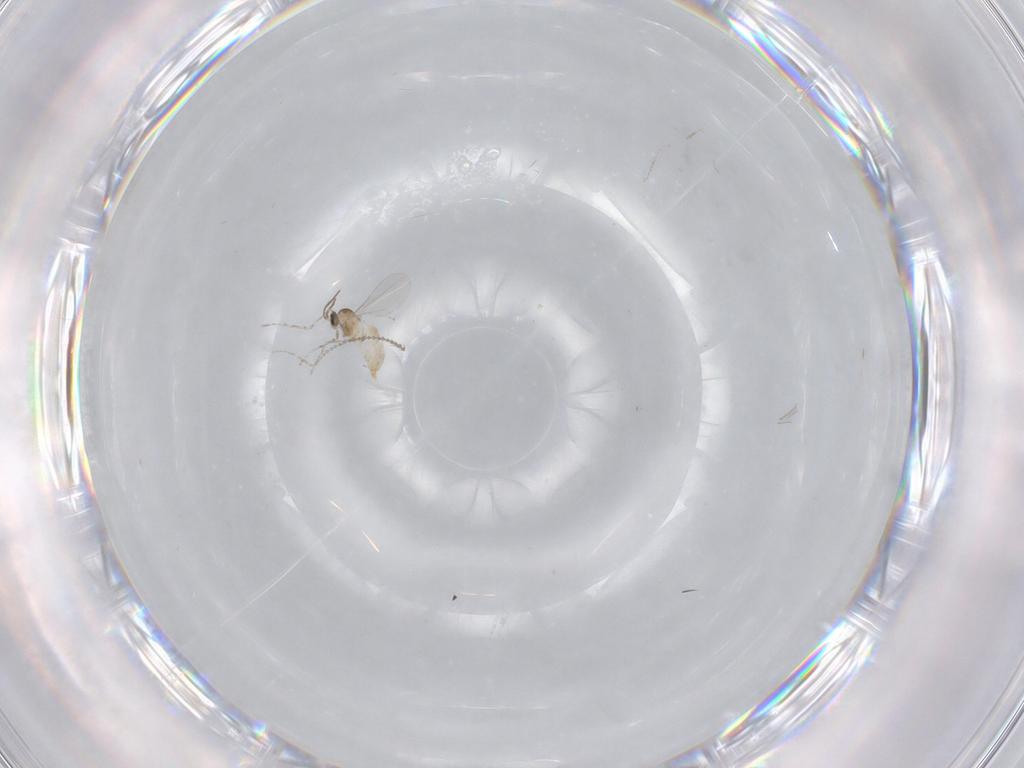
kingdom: Animalia
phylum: Arthropoda
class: Insecta
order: Diptera
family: Cecidomyiidae
